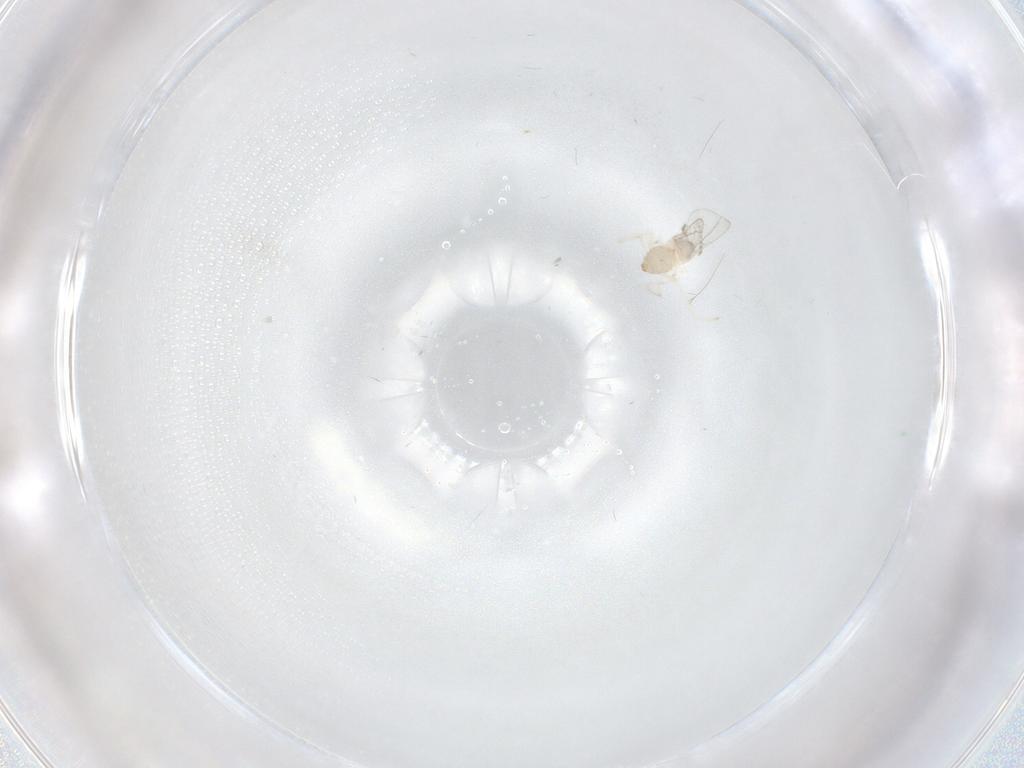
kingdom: Animalia
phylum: Arthropoda
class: Insecta
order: Diptera
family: Cecidomyiidae
